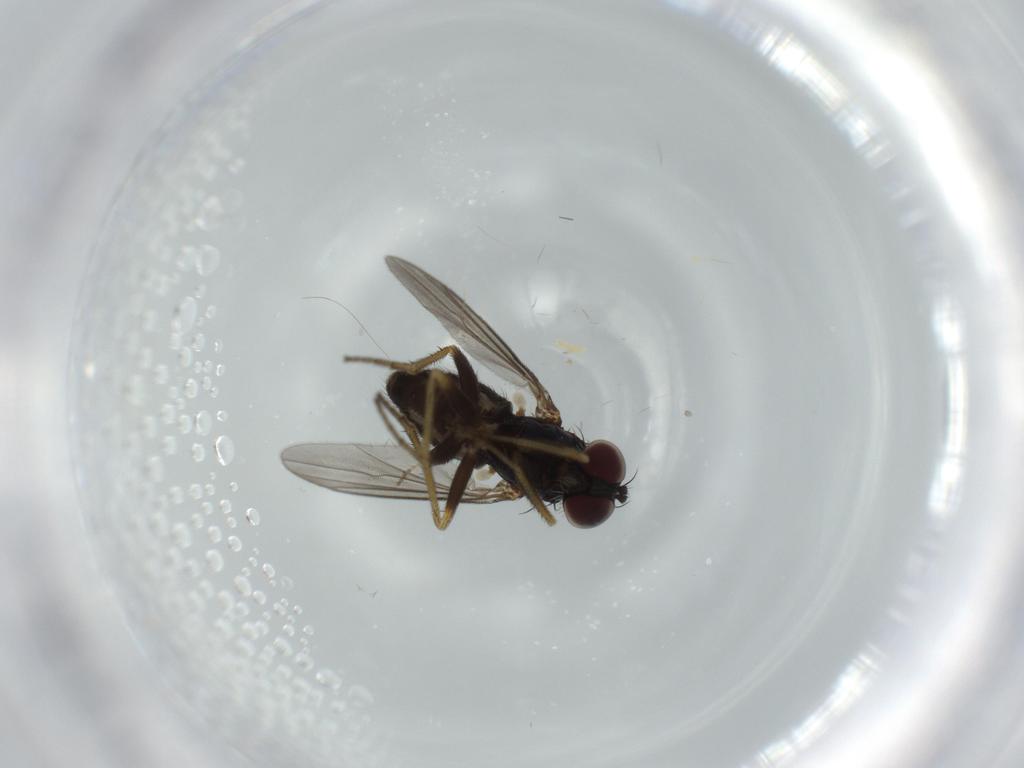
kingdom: Animalia
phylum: Arthropoda
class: Insecta
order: Diptera
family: Dolichopodidae
